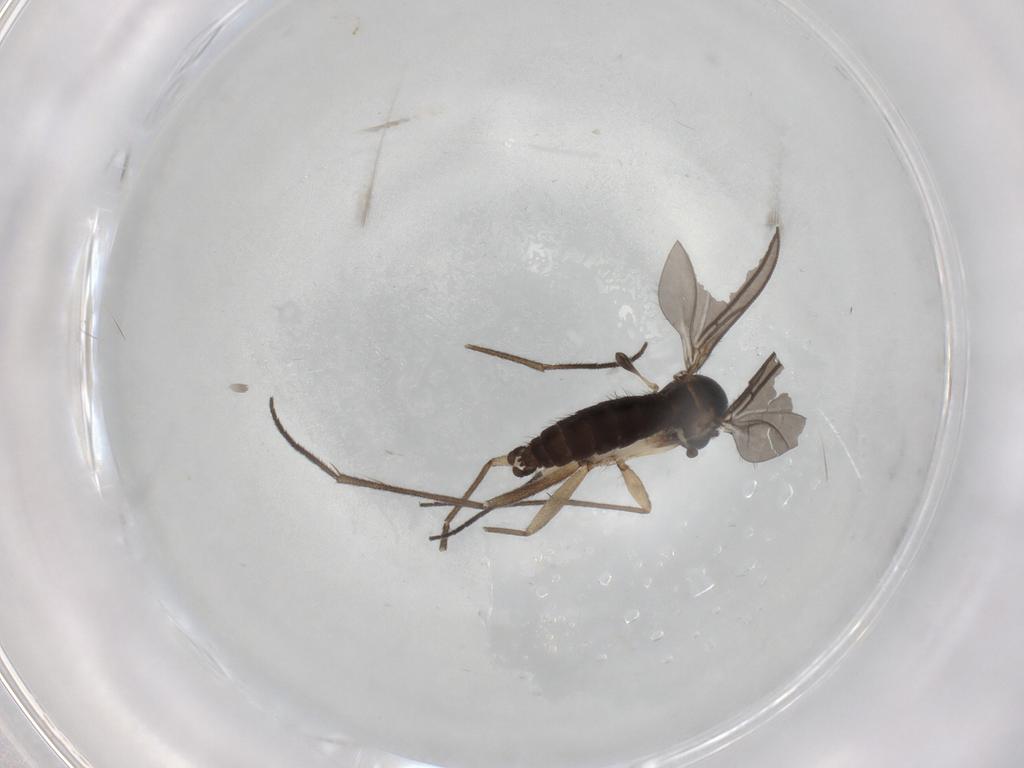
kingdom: Animalia
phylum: Arthropoda
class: Insecta
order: Diptera
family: Sciaridae
